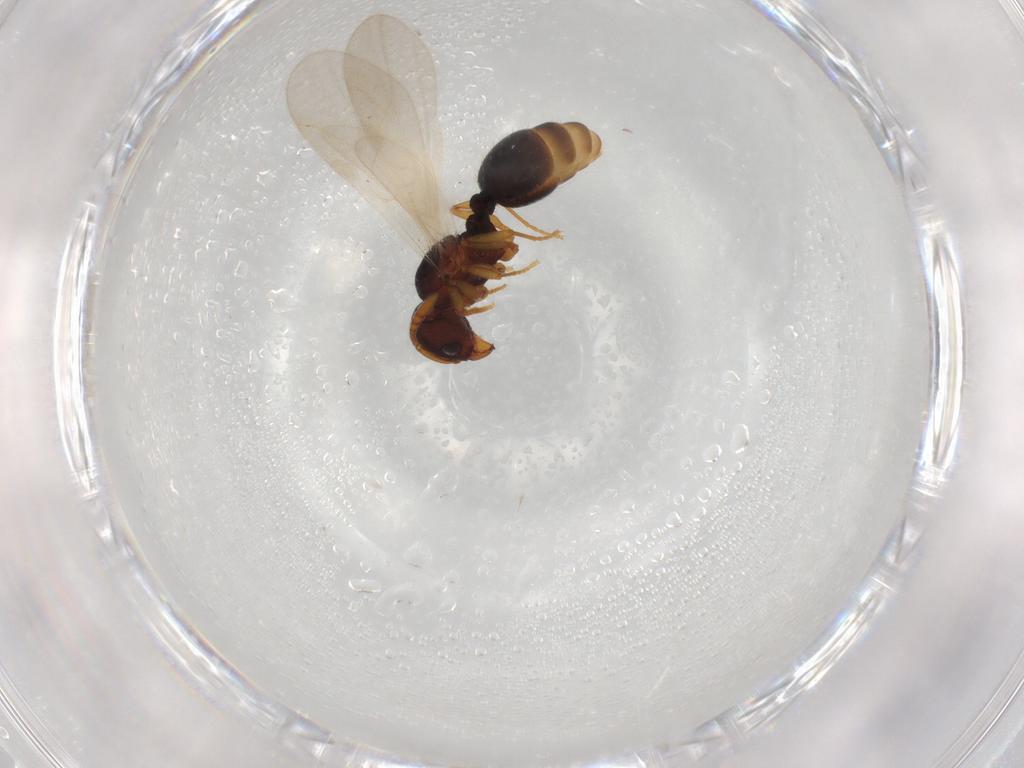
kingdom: Animalia
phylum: Arthropoda
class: Insecta
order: Hymenoptera
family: Formicidae
